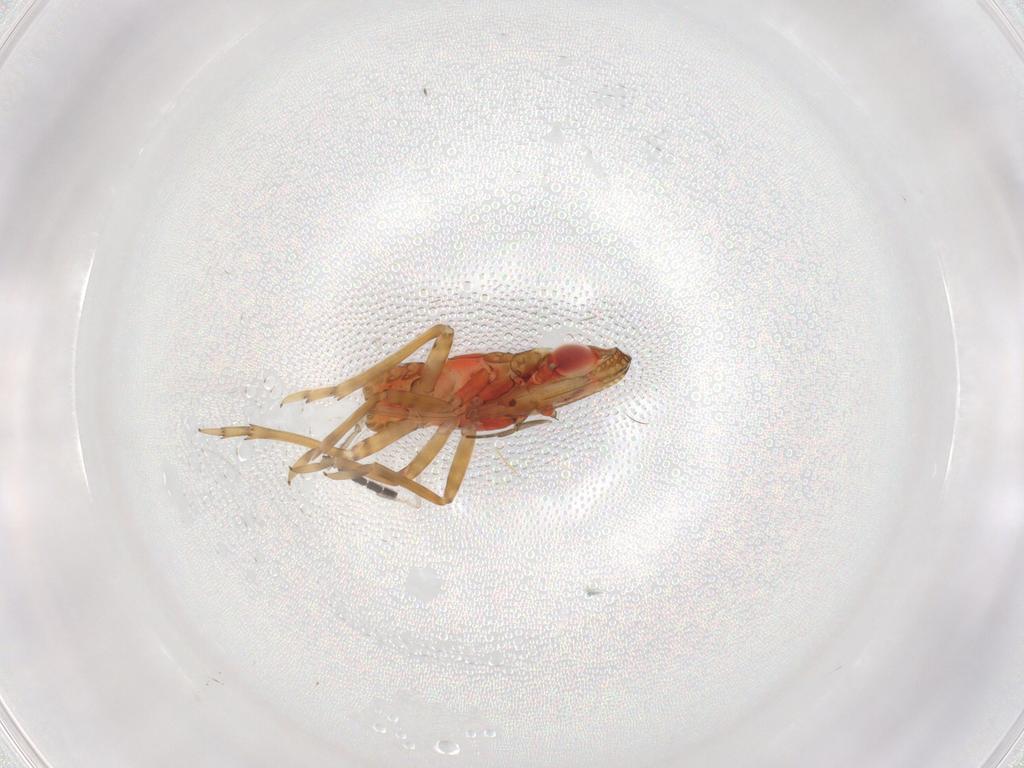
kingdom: Animalia
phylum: Arthropoda
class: Insecta
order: Hemiptera
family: Fulgoroidea_incertae_sedis
